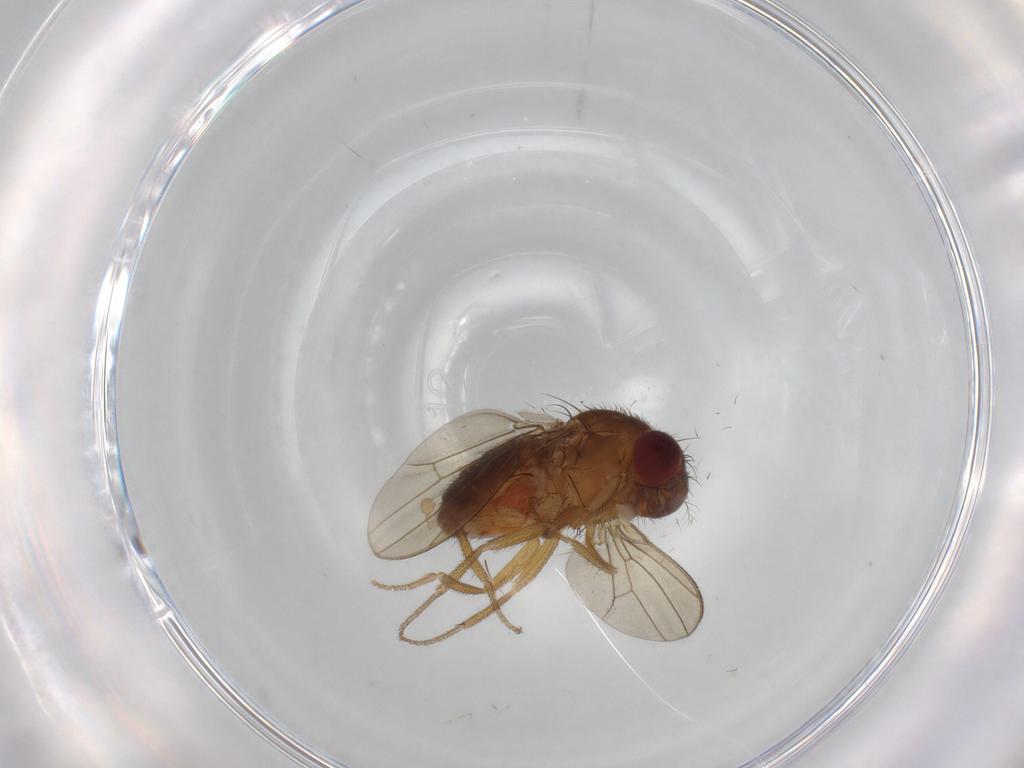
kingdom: Animalia
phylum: Arthropoda
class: Insecta
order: Diptera
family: Drosophilidae
